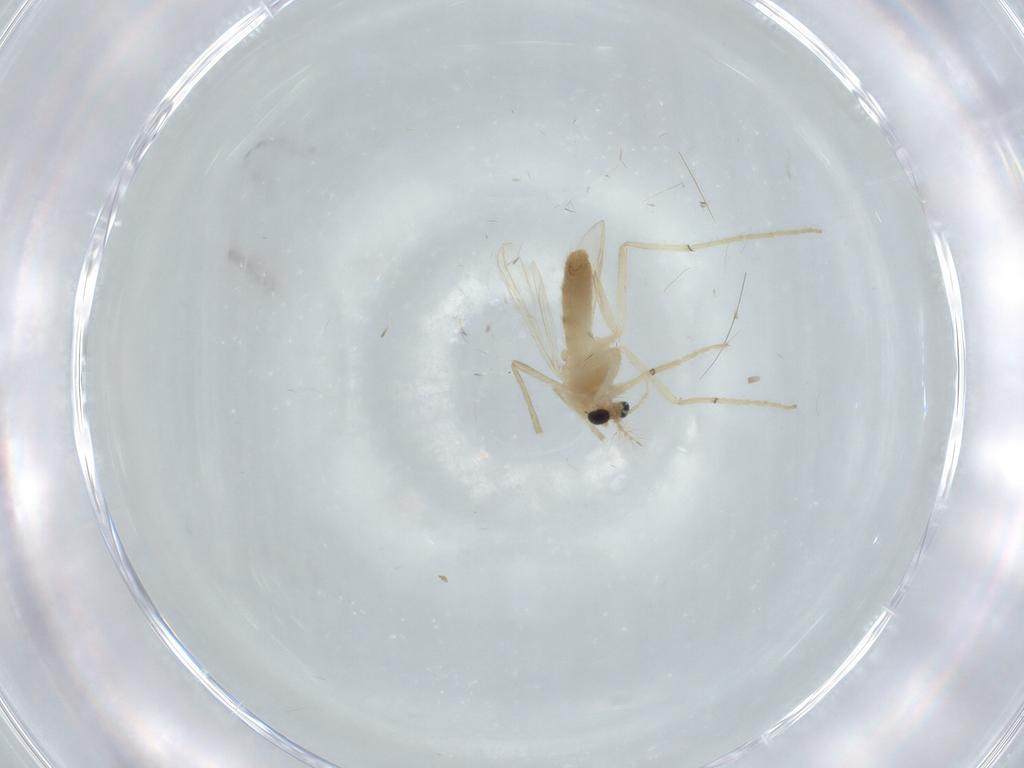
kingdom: Animalia
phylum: Arthropoda
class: Insecta
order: Diptera
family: Chironomidae
